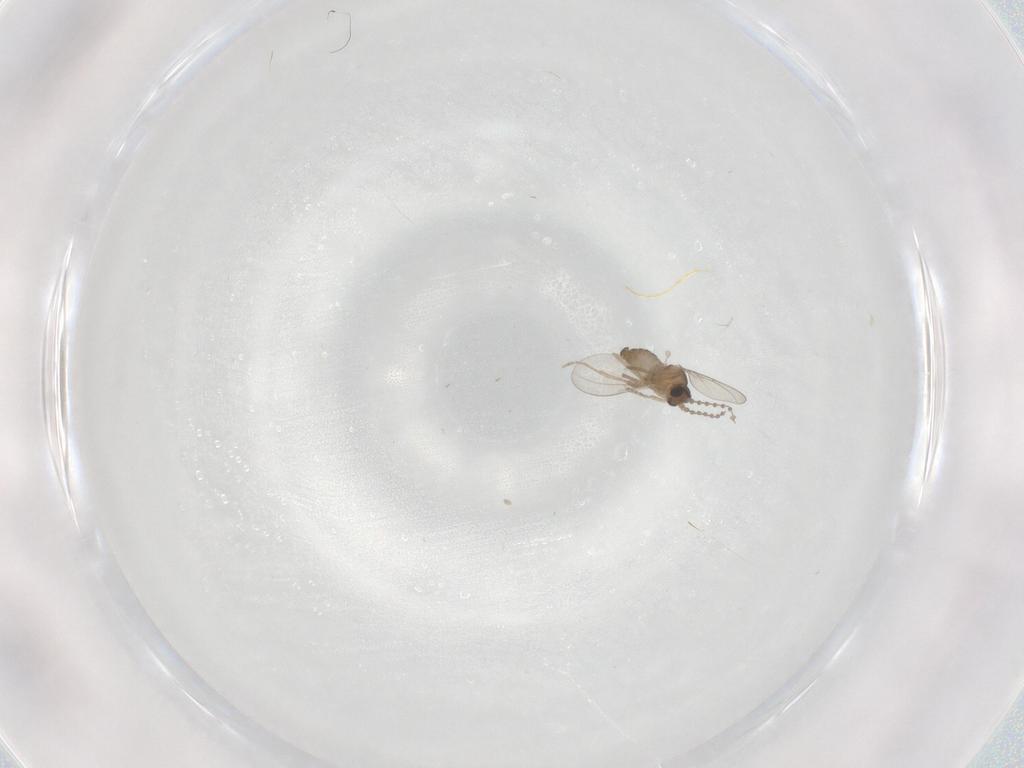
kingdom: Animalia
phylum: Arthropoda
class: Insecta
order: Diptera
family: Cecidomyiidae
